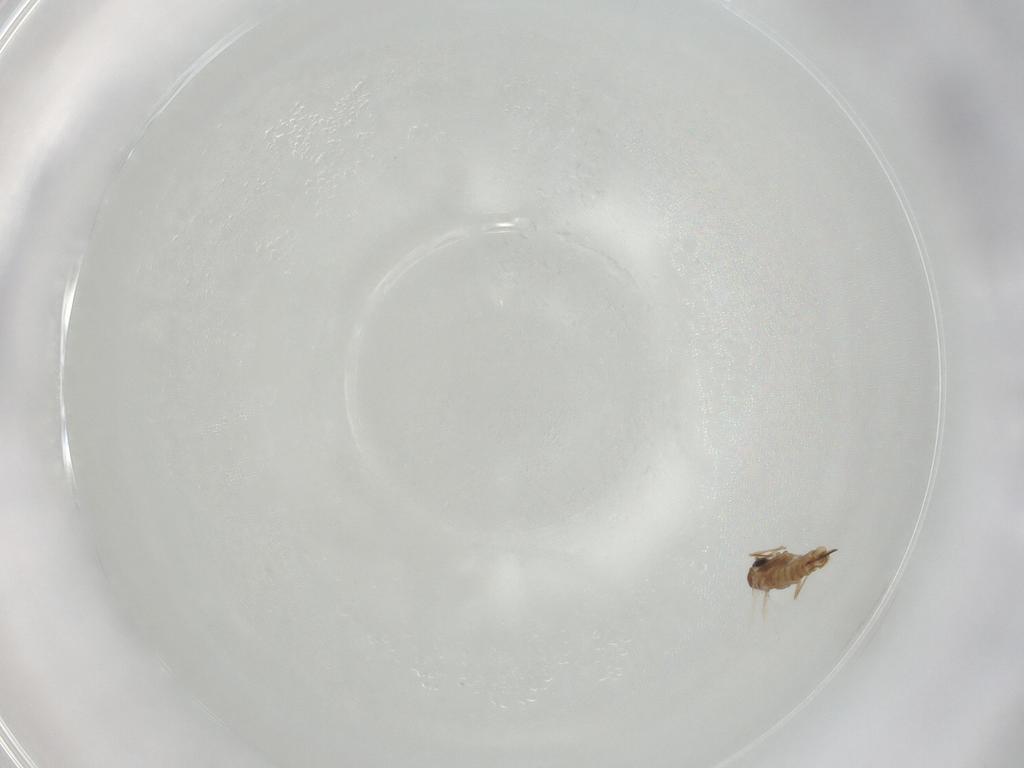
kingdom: Animalia
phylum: Arthropoda
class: Insecta
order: Diptera
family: Cecidomyiidae
